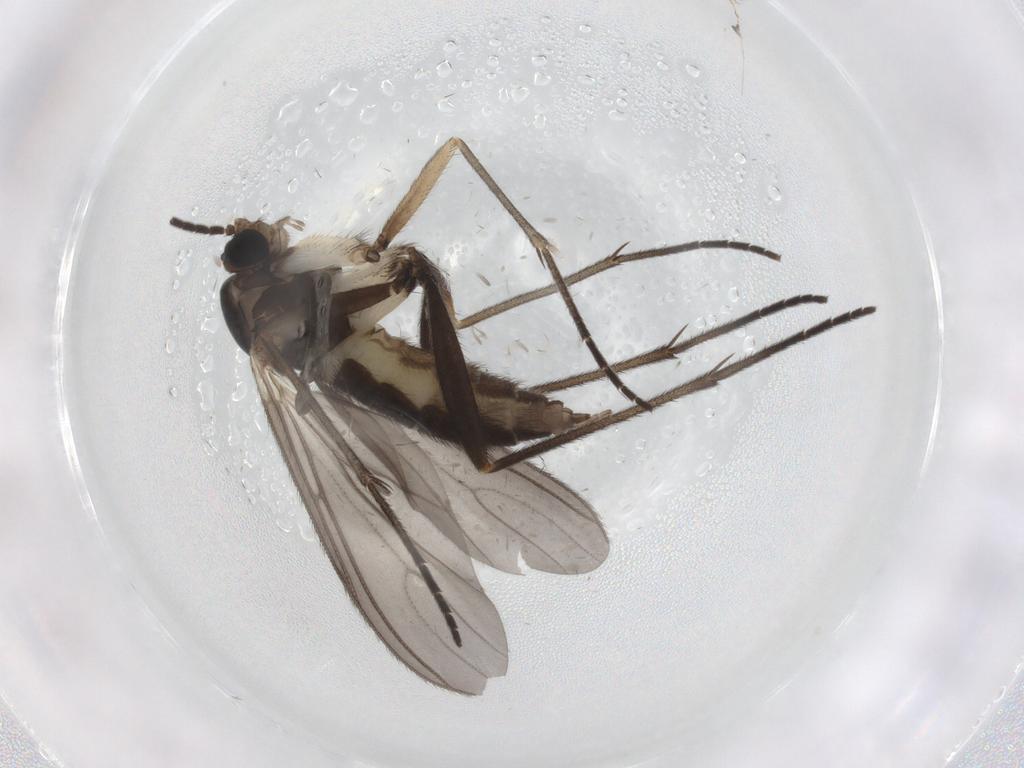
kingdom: Animalia
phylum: Arthropoda
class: Insecta
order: Diptera
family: Sciaridae
